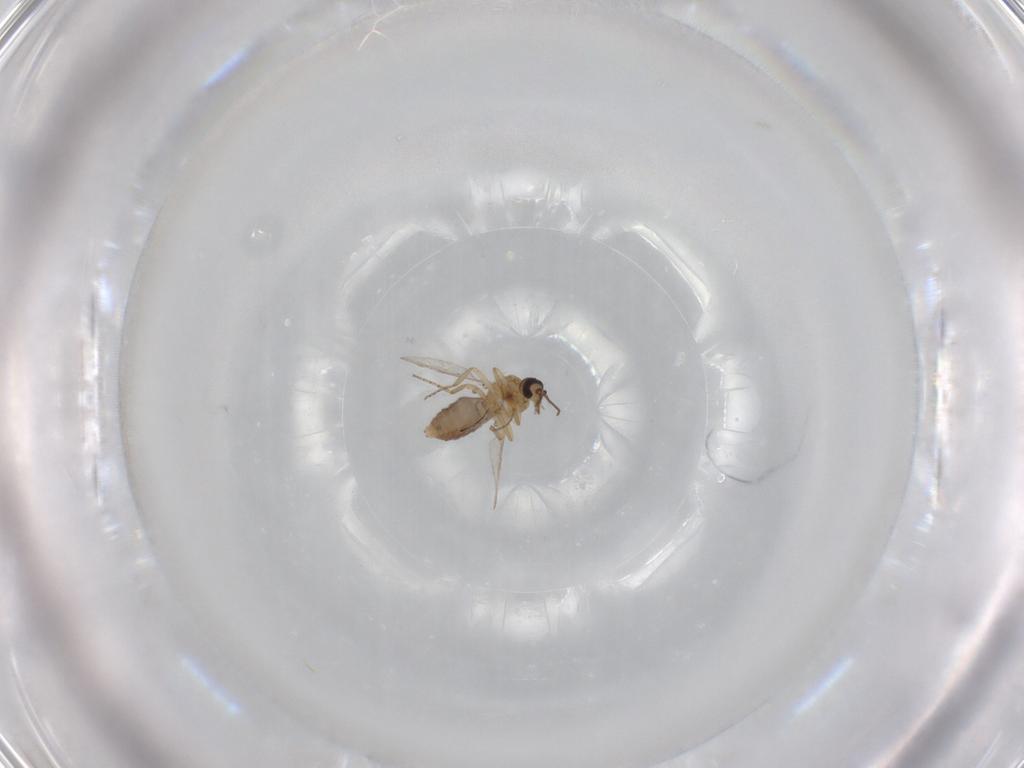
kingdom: Animalia
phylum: Arthropoda
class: Insecta
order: Diptera
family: Ceratopogonidae
